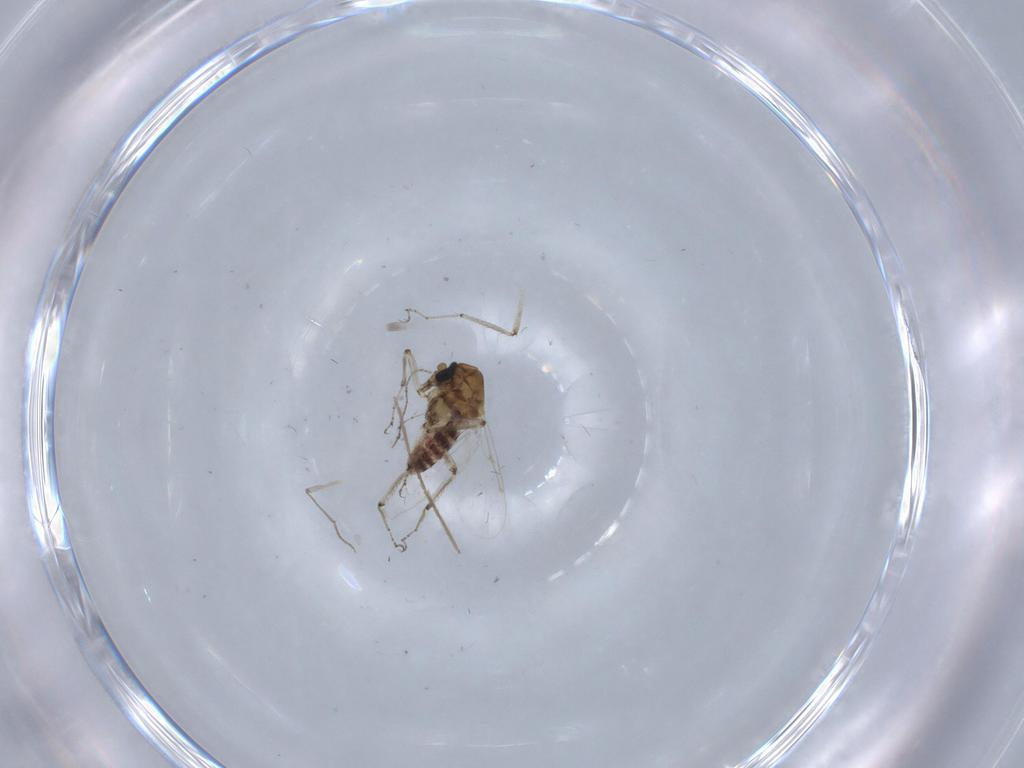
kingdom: Animalia
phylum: Arthropoda
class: Insecta
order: Diptera
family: Ceratopogonidae
